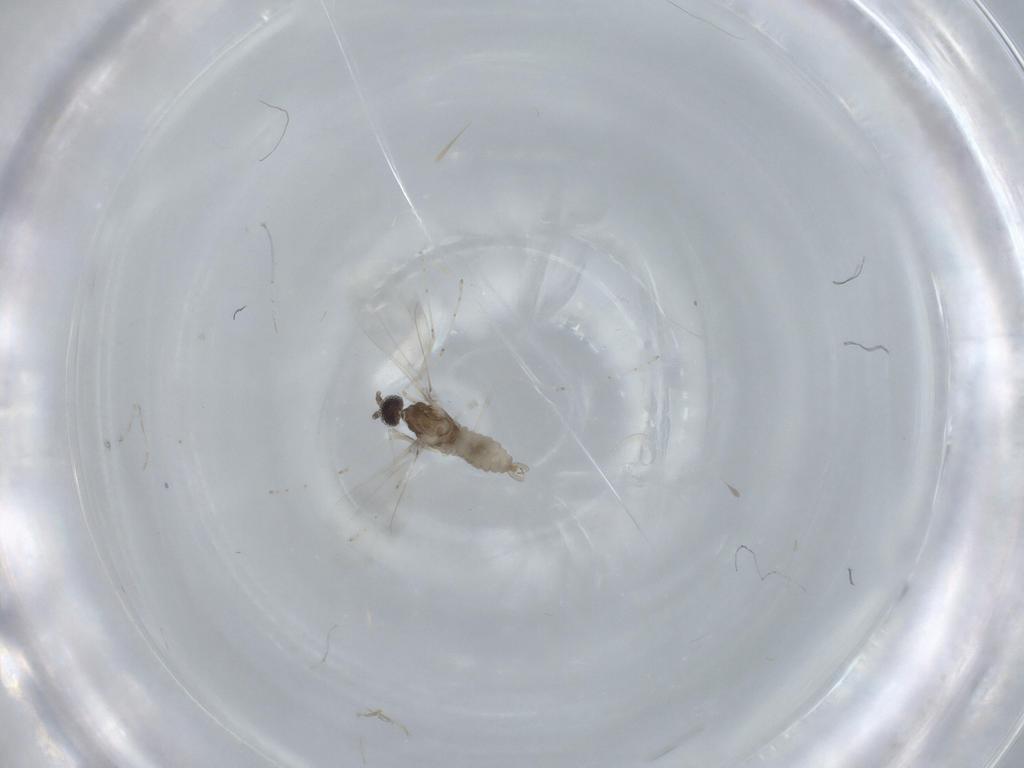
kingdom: Animalia
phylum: Arthropoda
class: Insecta
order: Diptera
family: Cecidomyiidae
